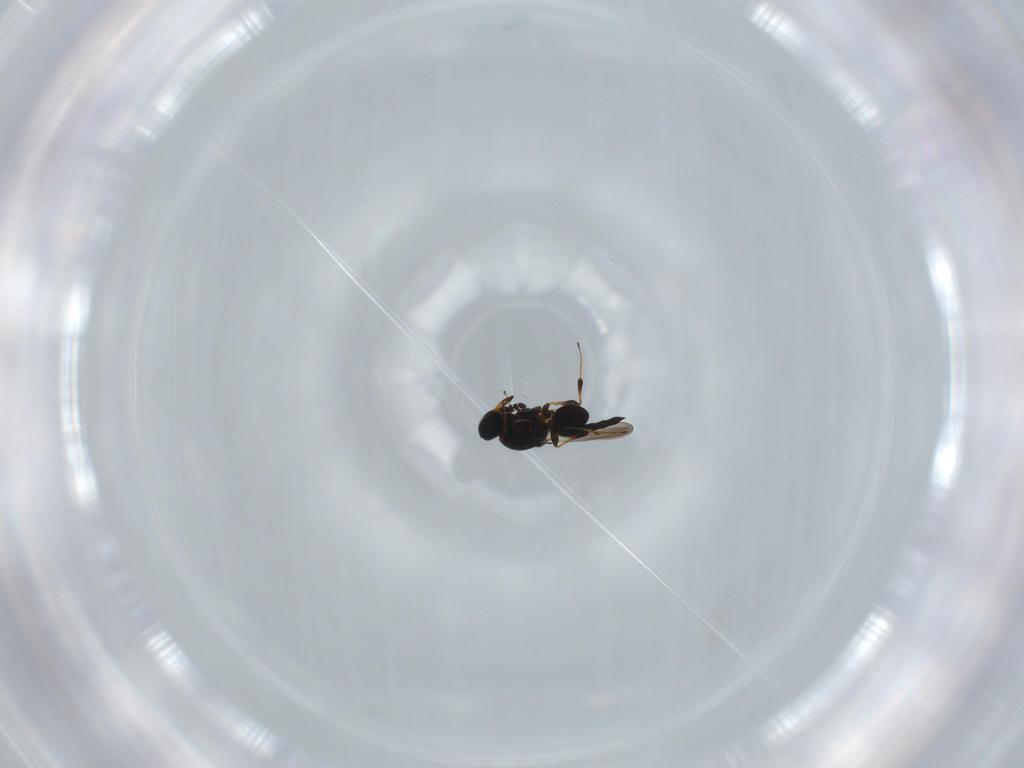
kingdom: Animalia
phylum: Arthropoda
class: Insecta
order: Hymenoptera
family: Platygastridae
